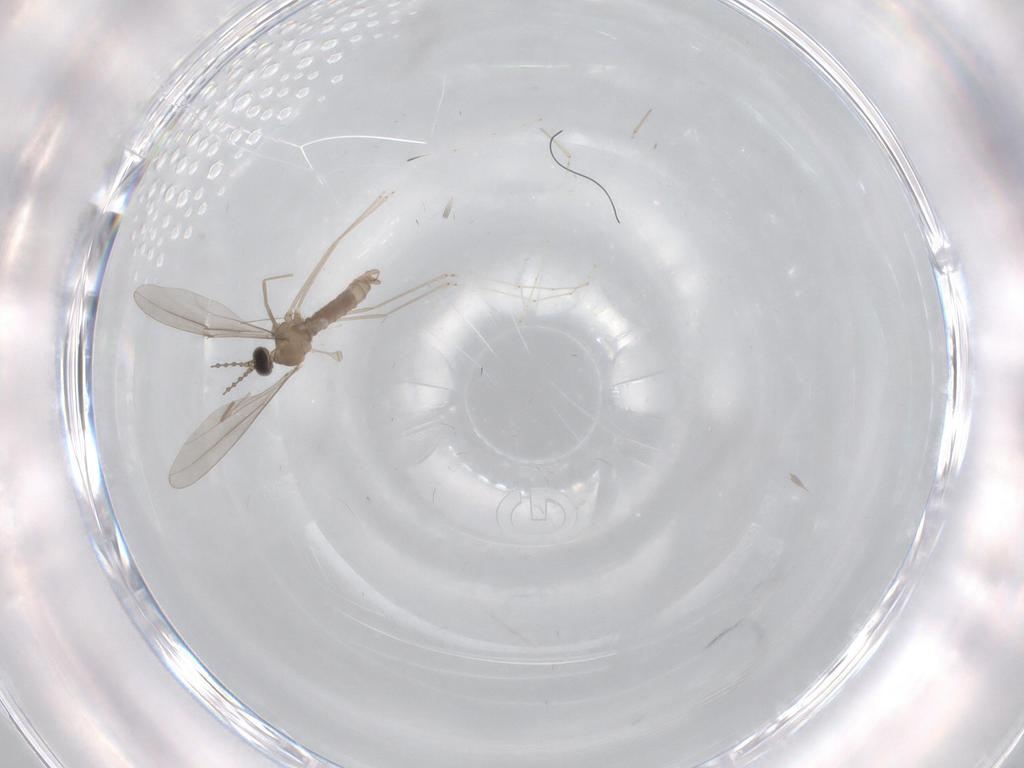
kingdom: Animalia
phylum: Arthropoda
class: Insecta
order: Diptera
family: Cecidomyiidae
